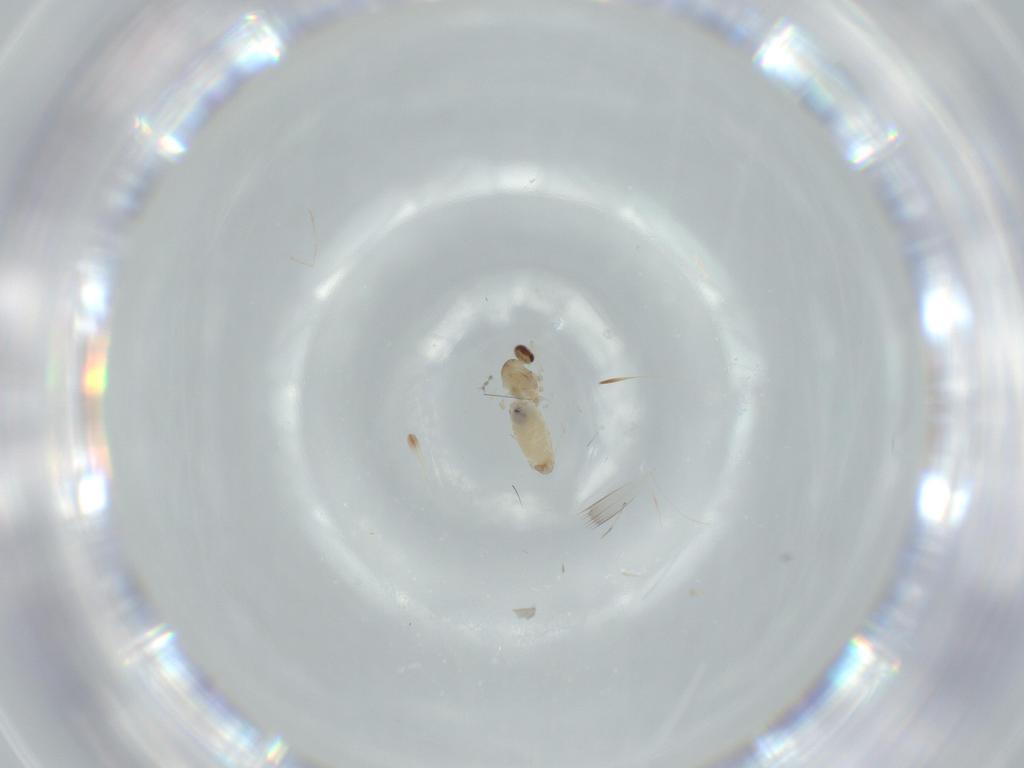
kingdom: Animalia
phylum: Arthropoda
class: Insecta
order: Diptera
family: Cecidomyiidae
